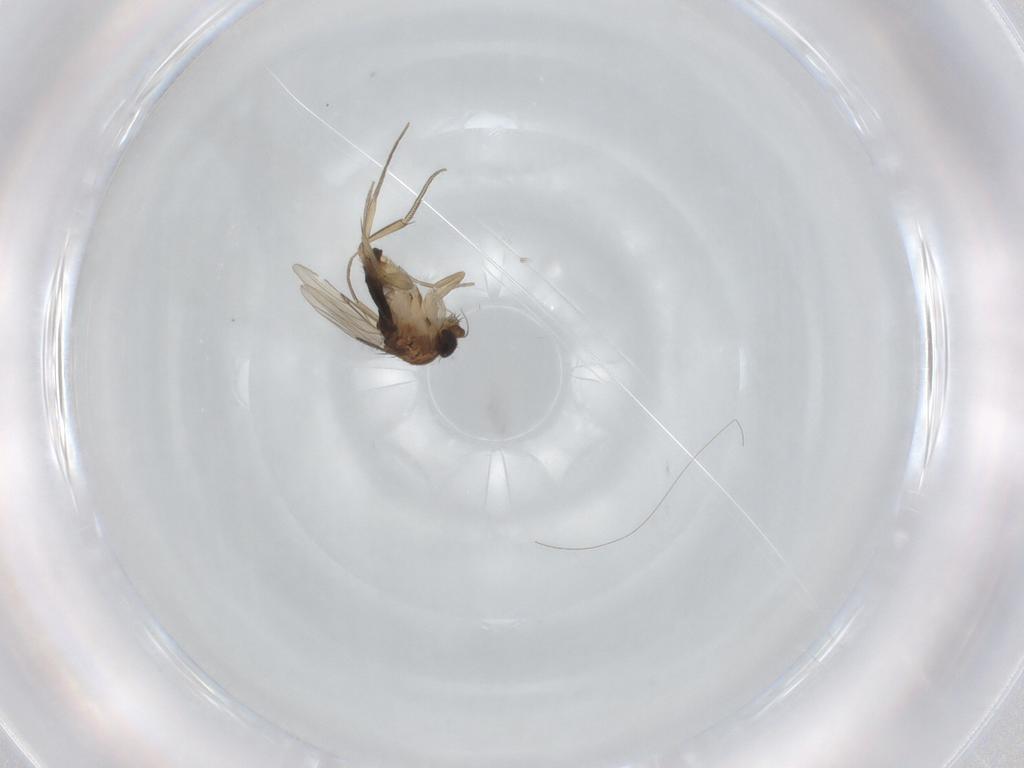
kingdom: Animalia
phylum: Arthropoda
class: Insecta
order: Diptera
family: Phoridae
